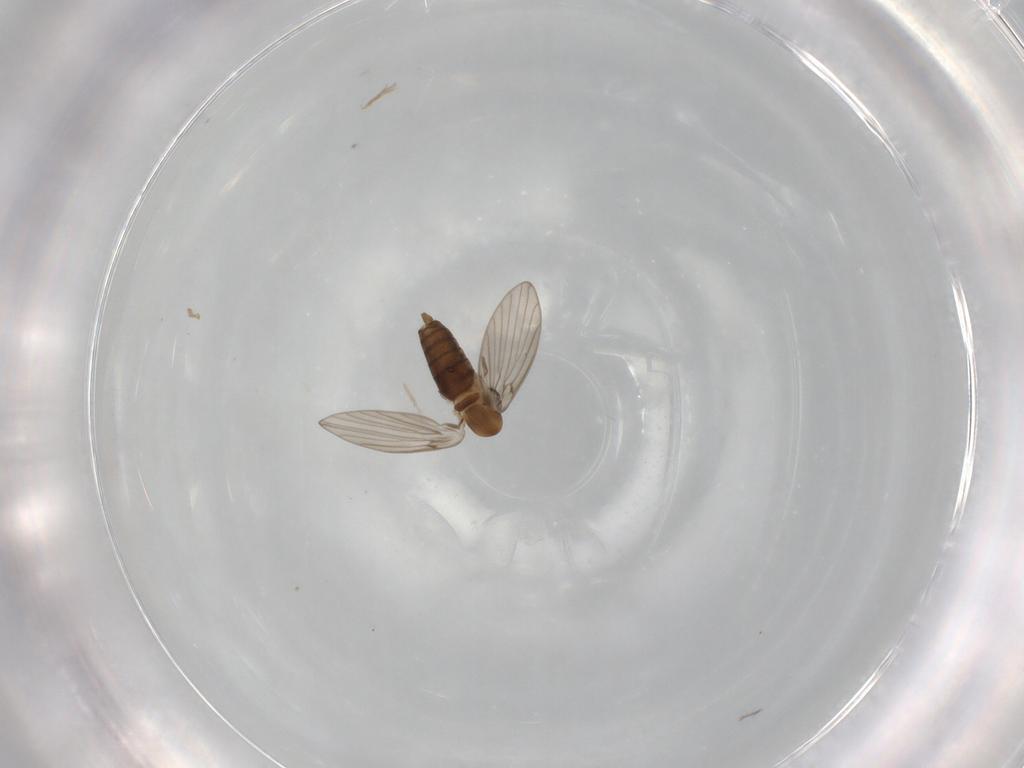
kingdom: Animalia
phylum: Arthropoda
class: Insecta
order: Diptera
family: Psychodidae
